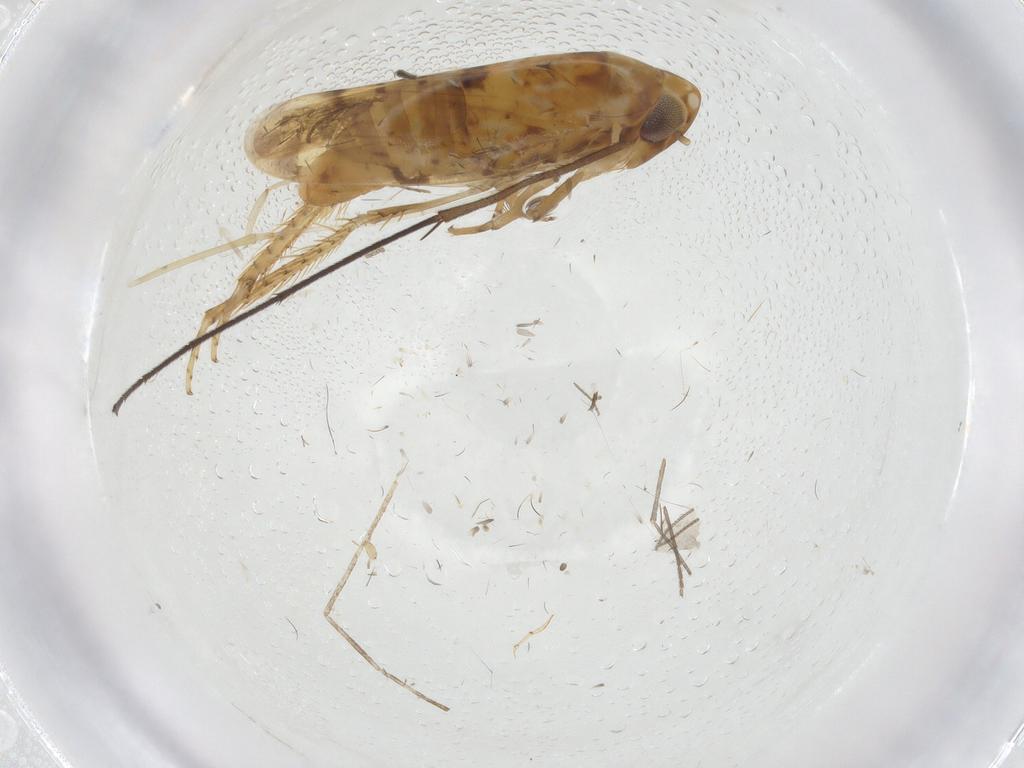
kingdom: Animalia
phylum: Arthropoda
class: Insecta
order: Hemiptera
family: Cicadellidae
